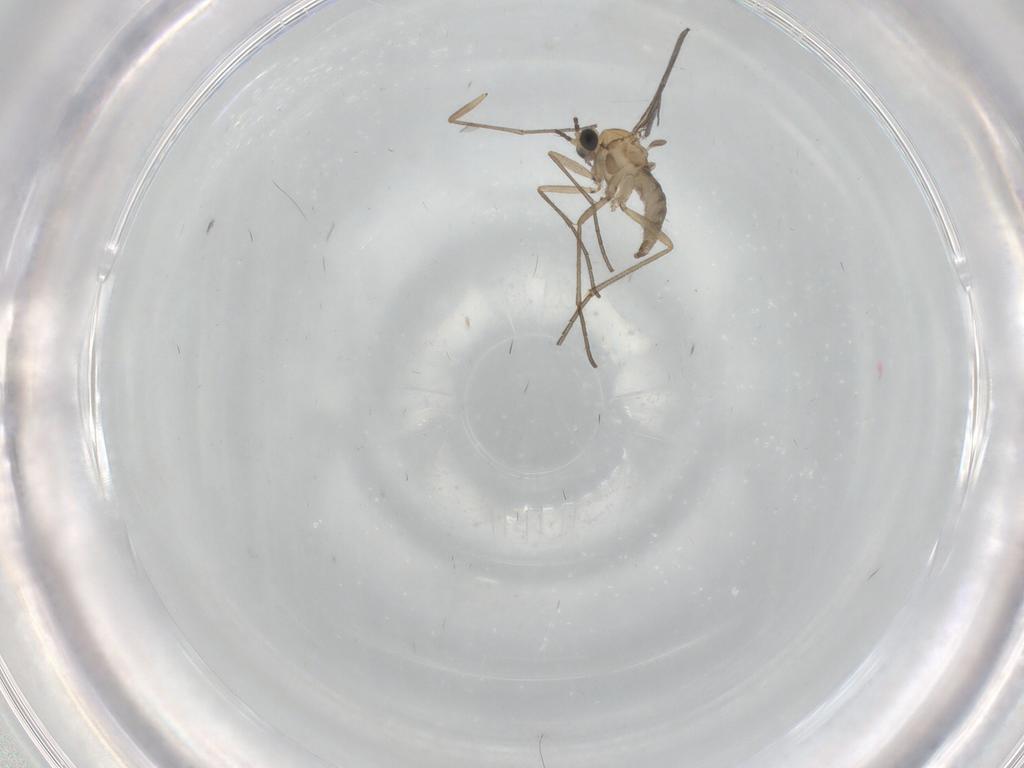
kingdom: Animalia
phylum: Arthropoda
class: Insecta
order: Diptera
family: Sciaridae
